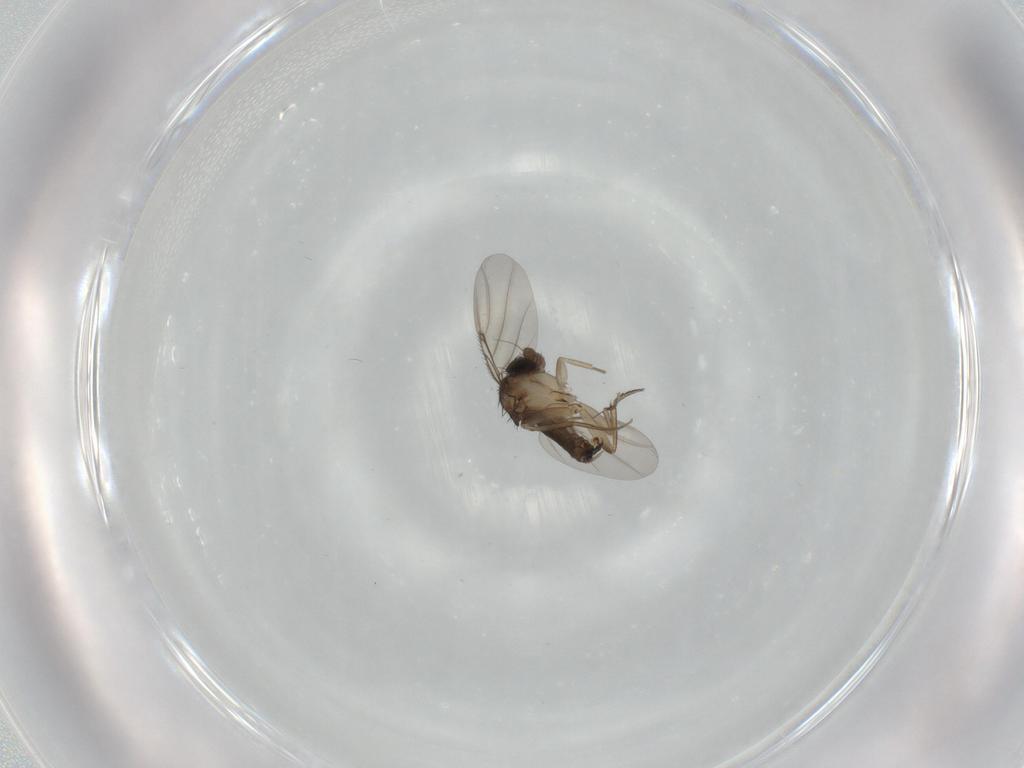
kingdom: Animalia
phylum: Arthropoda
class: Insecta
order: Diptera
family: Phoridae
